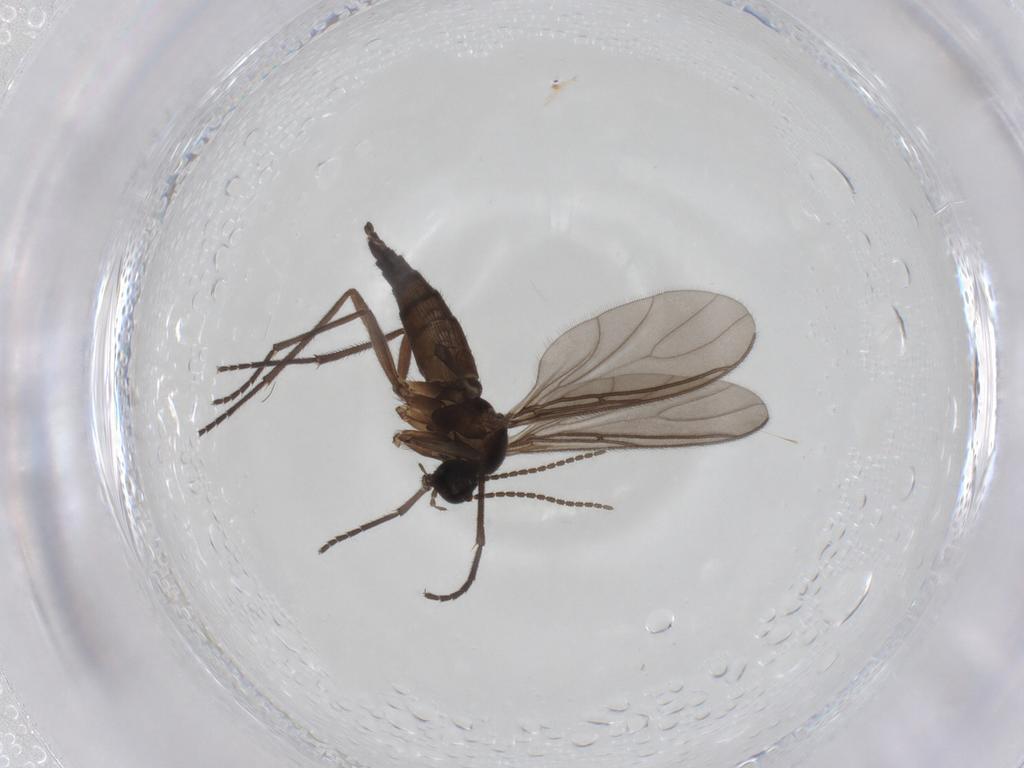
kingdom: Animalia
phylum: Arthropoda
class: Insecta
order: Diptera
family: Sciaridae
